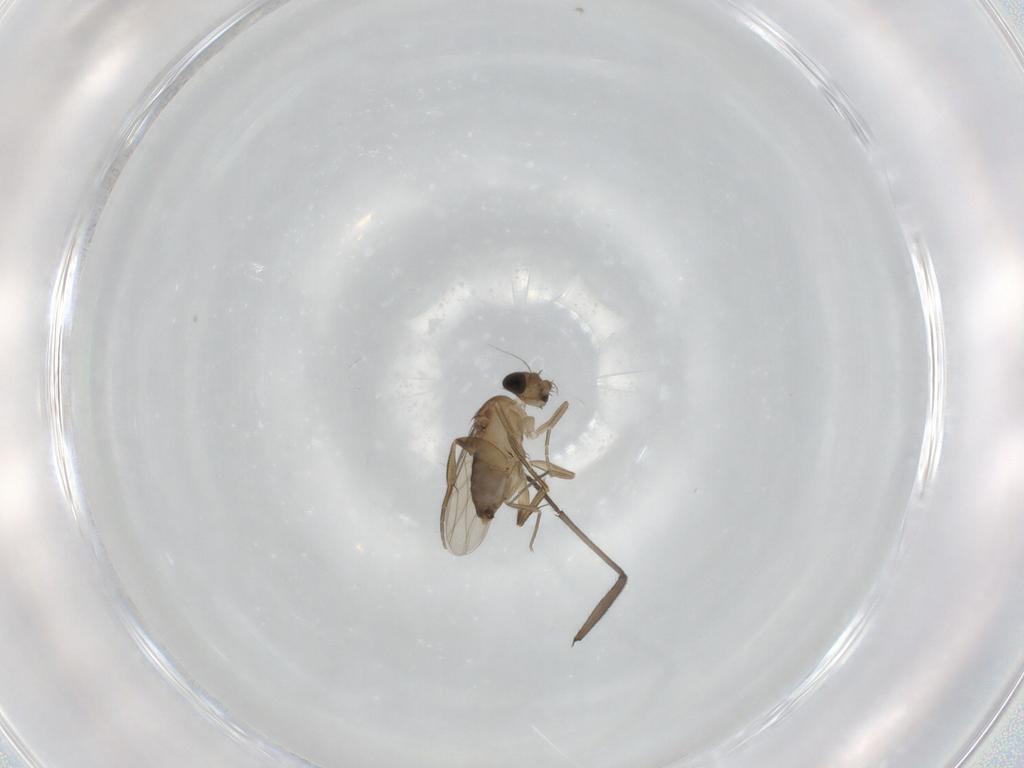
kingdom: Animalia
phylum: Arthropoda
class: Insecta
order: Diptera
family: Phoridae
